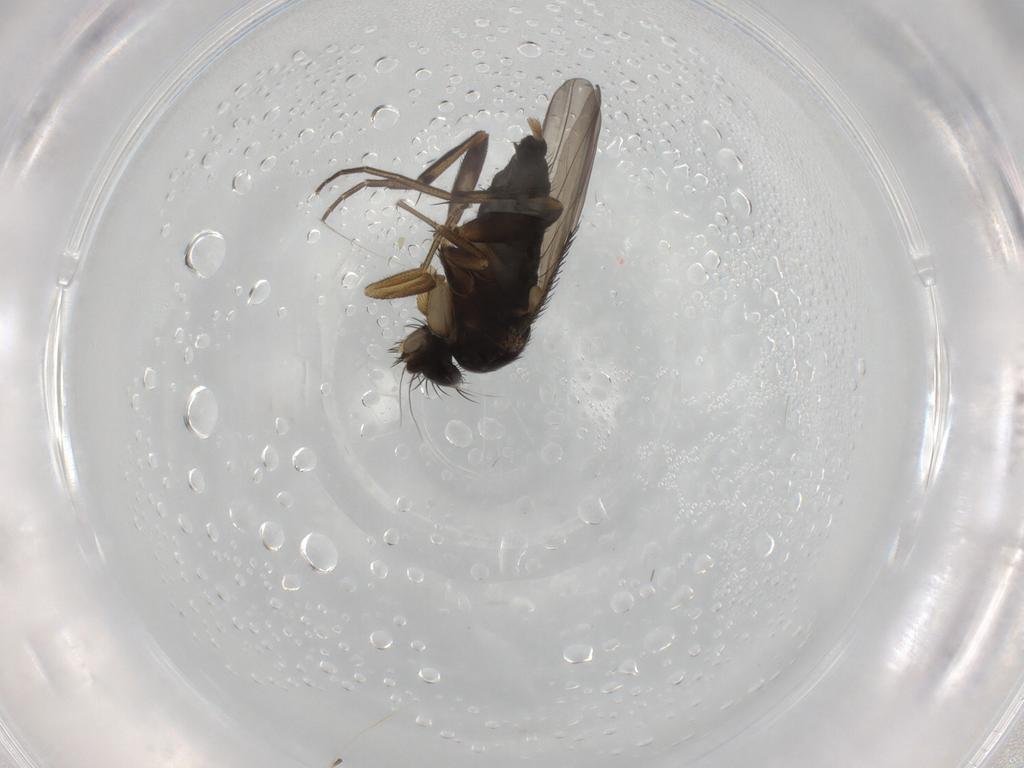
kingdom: Animalia
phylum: Arthropoda
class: Insecta
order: Diptera
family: Phoridae
